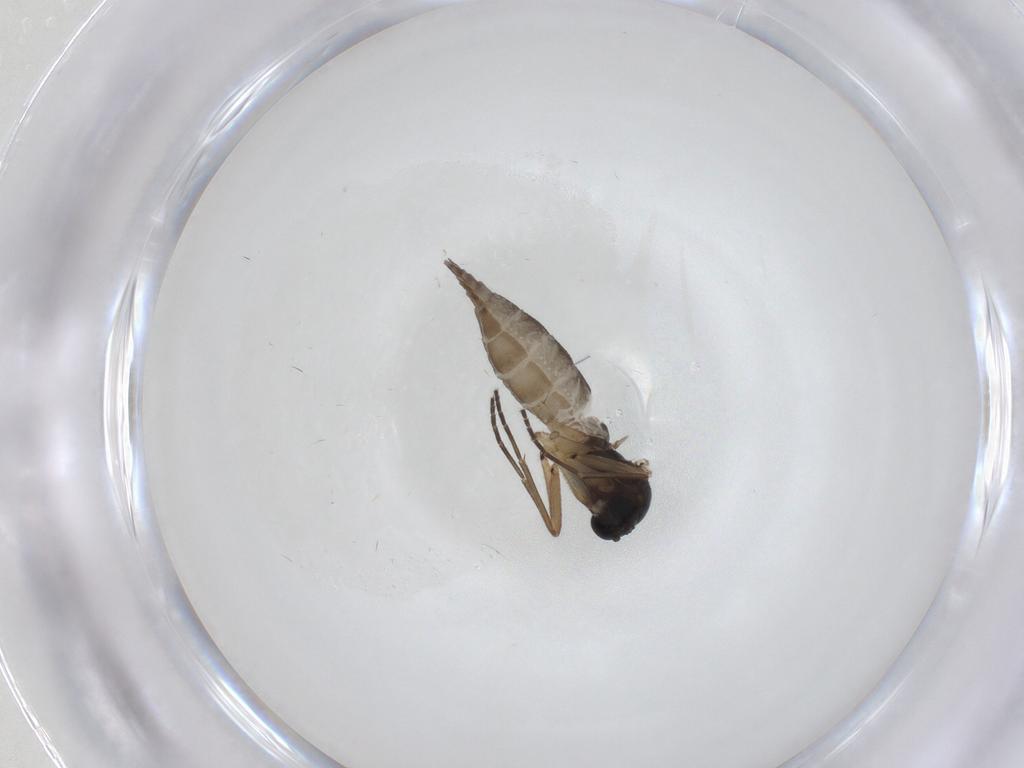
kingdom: Animalia
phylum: Arthropoda
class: Insecta
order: Diptera
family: Sciaridae
